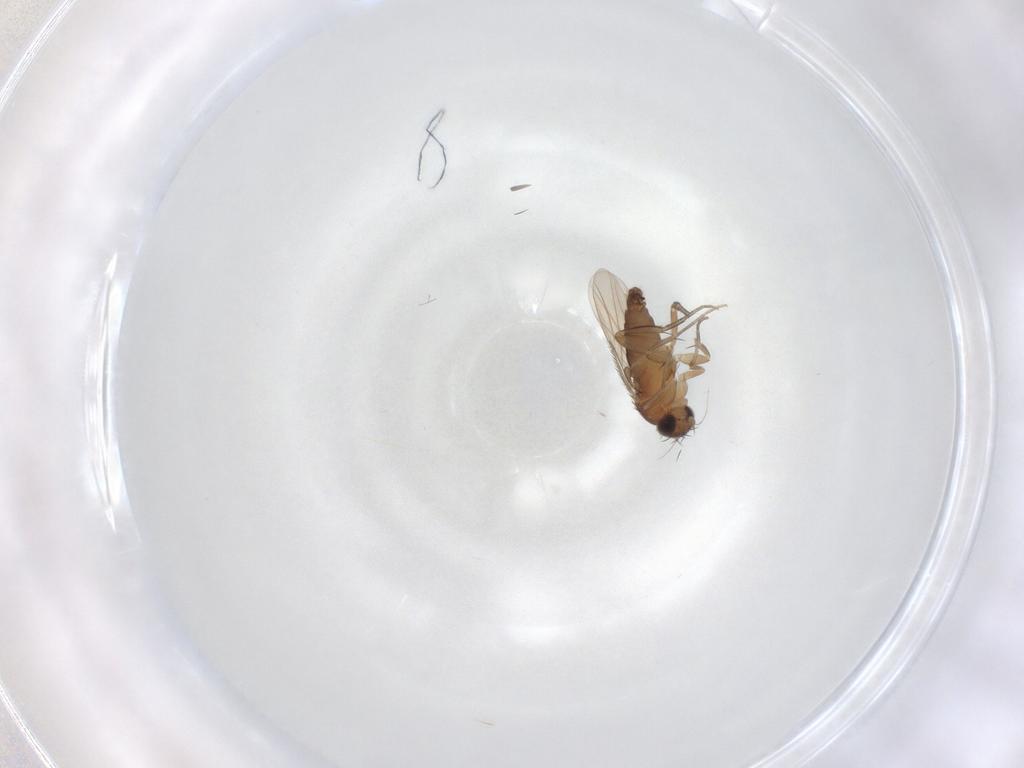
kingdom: Animalia
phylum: Arthropoda
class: Insecta
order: Diptera
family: Phoridae
